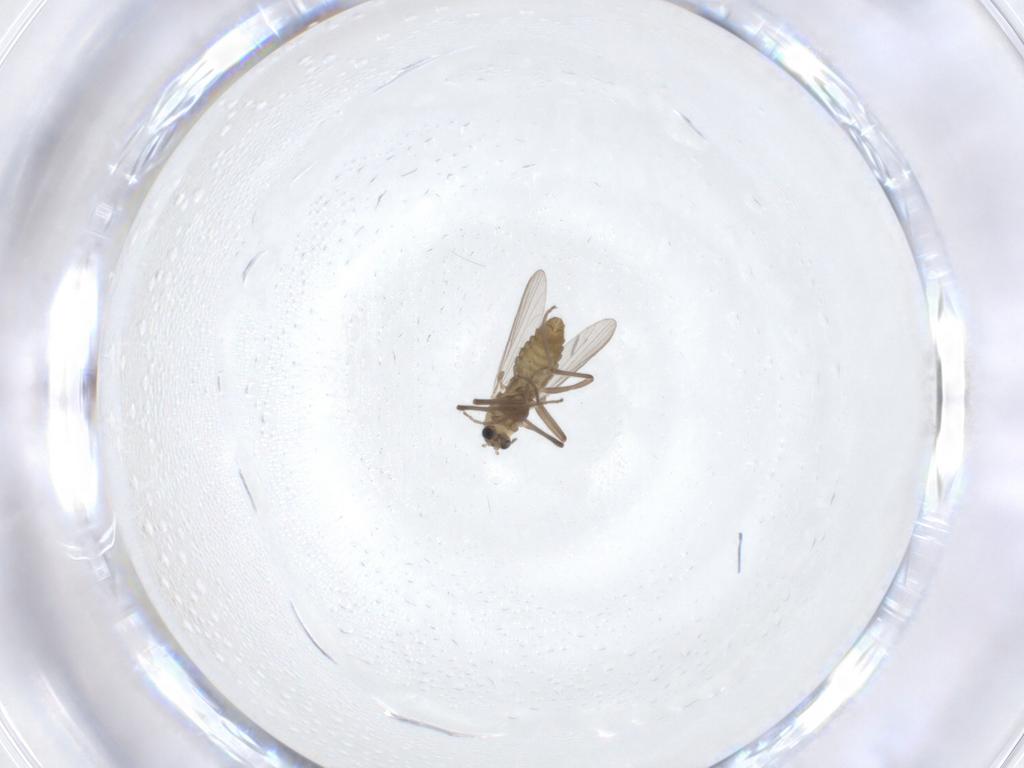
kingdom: Animalia
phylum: Arthropoda
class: Insecta
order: Diptera
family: Chironomidae
